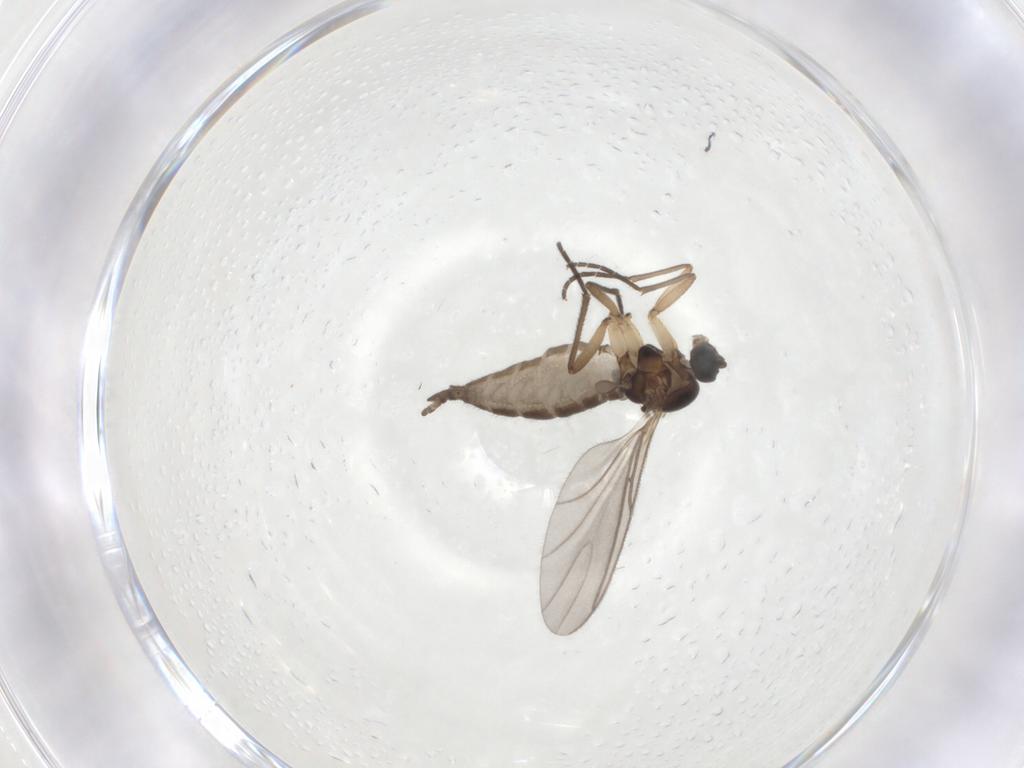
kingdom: Animalia
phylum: Arthropoda
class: Insecta
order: Diptera
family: Sciaridae
